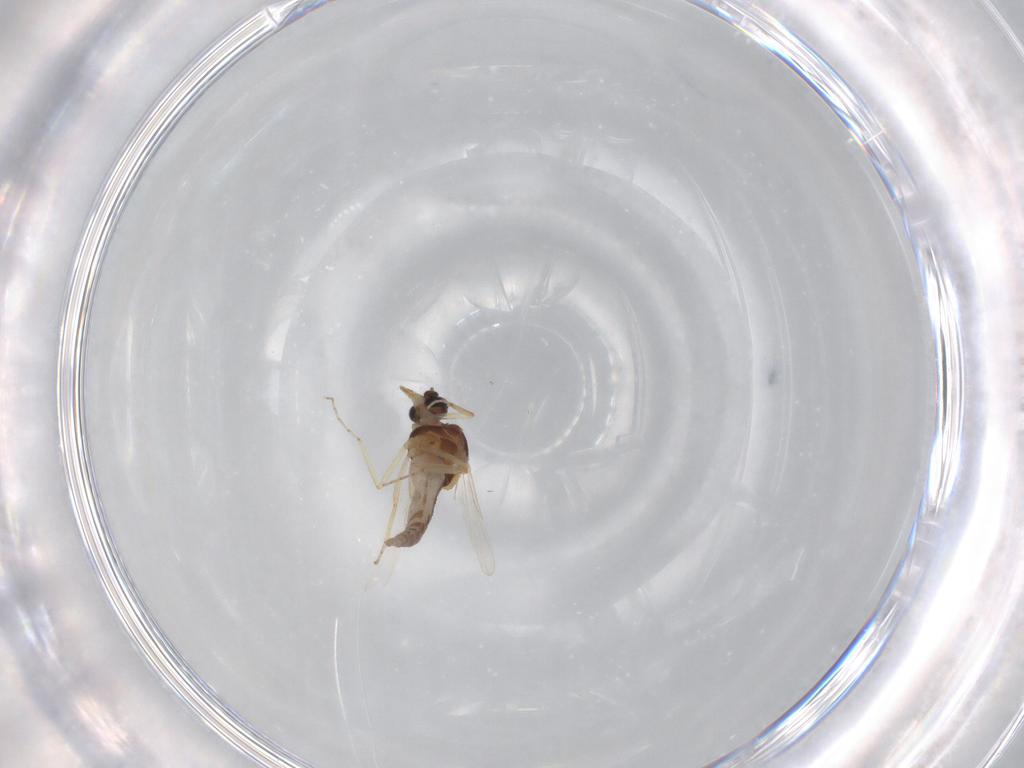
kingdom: Animalia
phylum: Arthropoda
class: Insecta
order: Diptera
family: Ceratopogonidae
